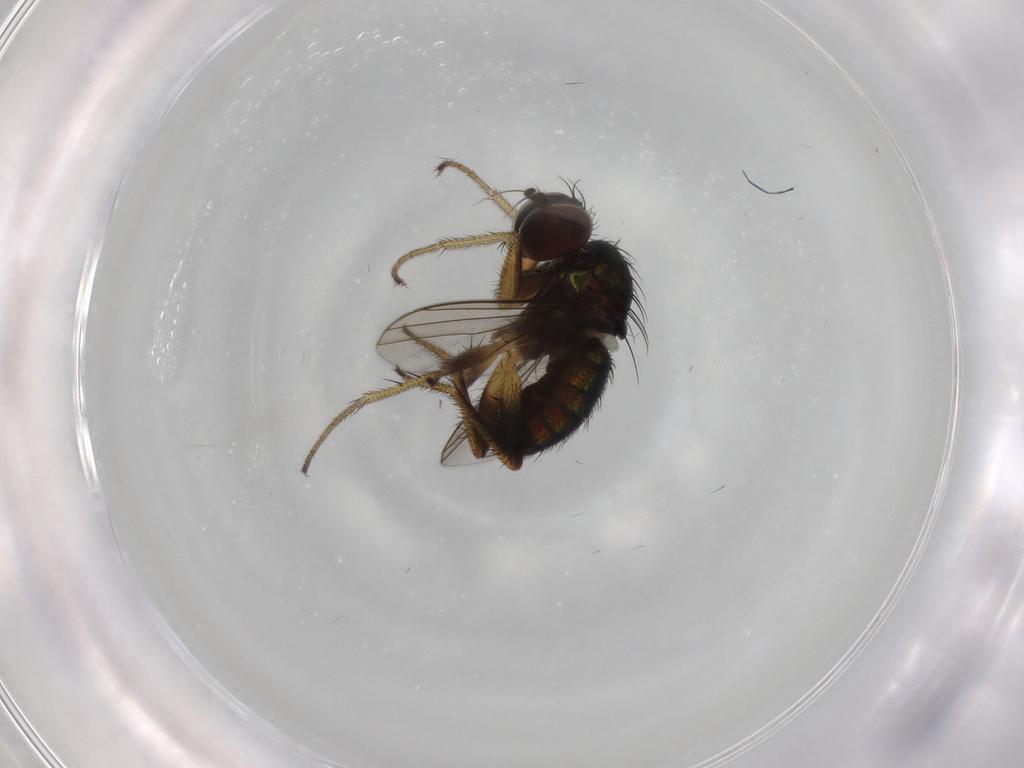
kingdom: Animalia
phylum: Arthropoda
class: Insecta
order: Diptera
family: Dolichopodidae
